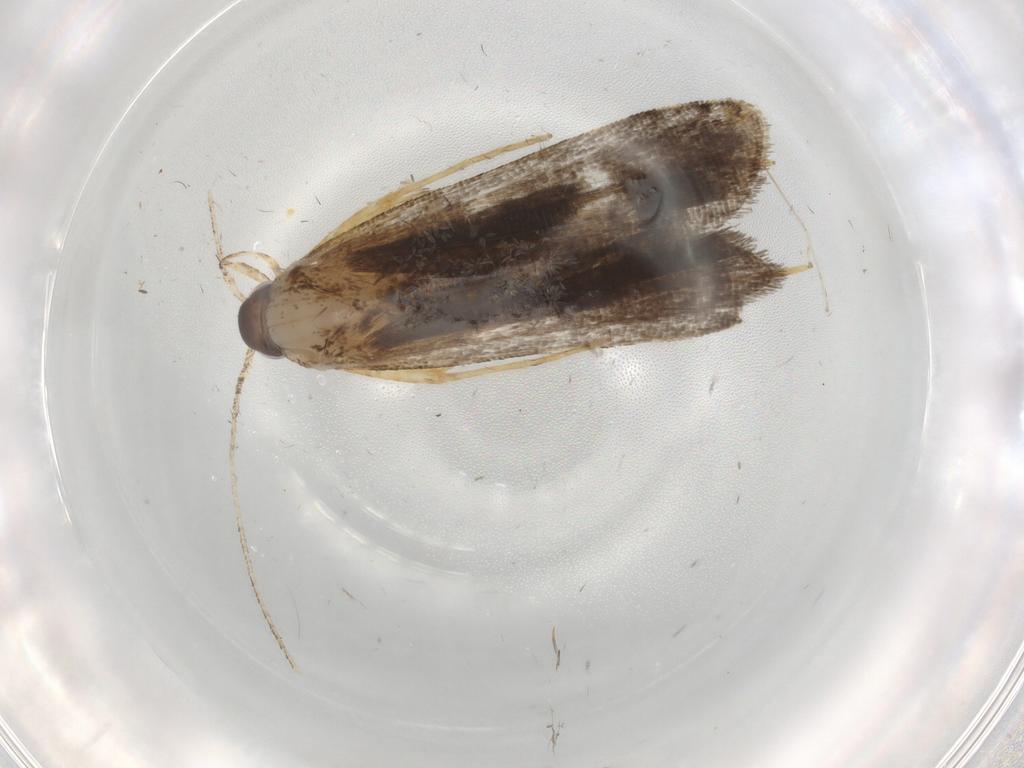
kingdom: Animalia
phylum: Arthropoda
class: Insecta
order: Lepidoptera
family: Cosmopterigidae
